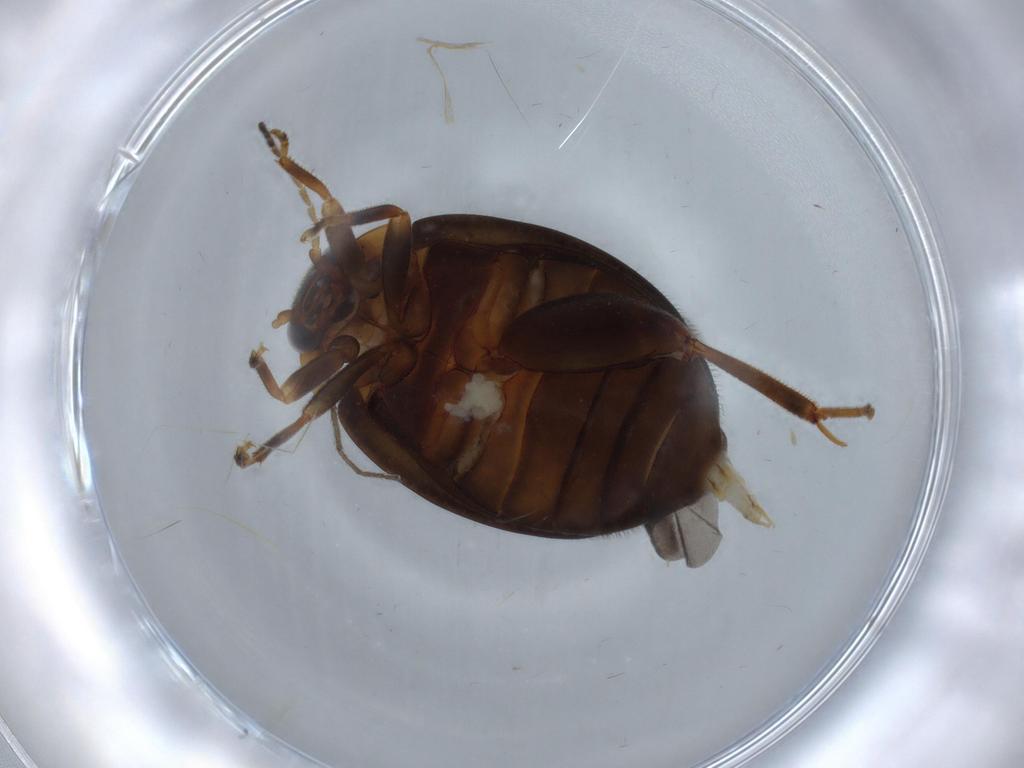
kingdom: Animalia
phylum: Arthropoda
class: Insecta
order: Coleoptera
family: Scirtidae
